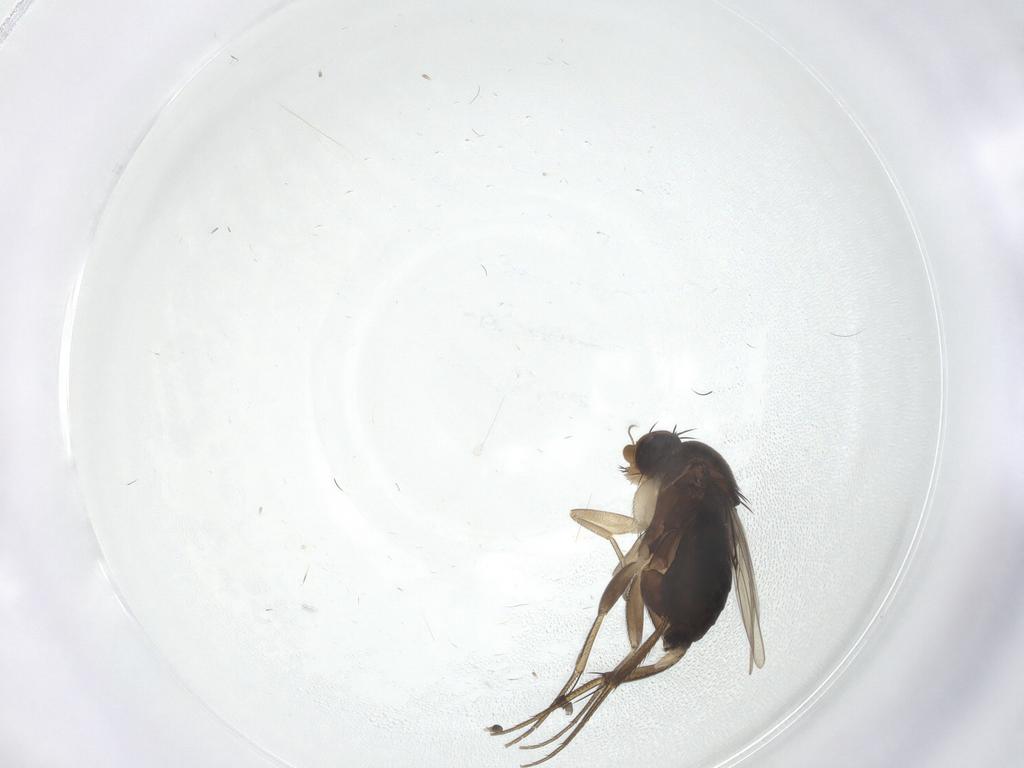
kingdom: Animalia
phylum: Arthropoda
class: Insecta
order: Diptera
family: Phoridae
